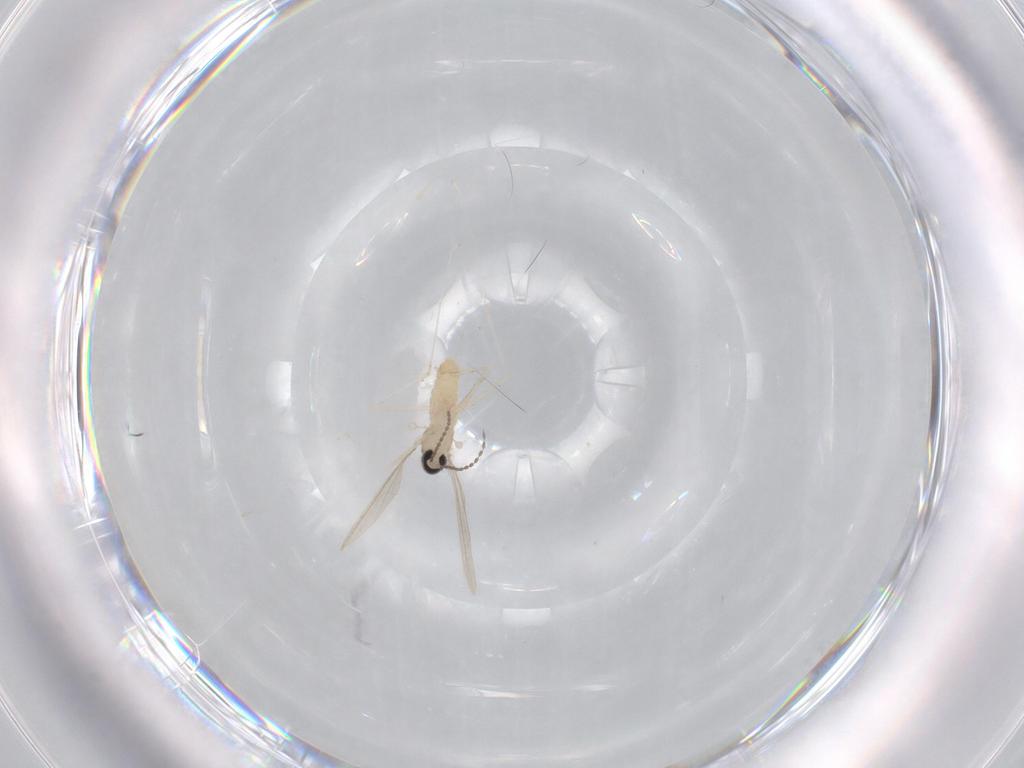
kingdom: Animalia
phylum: Arthropoda
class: Insecta
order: Diptera
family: Cecidomyiidae
